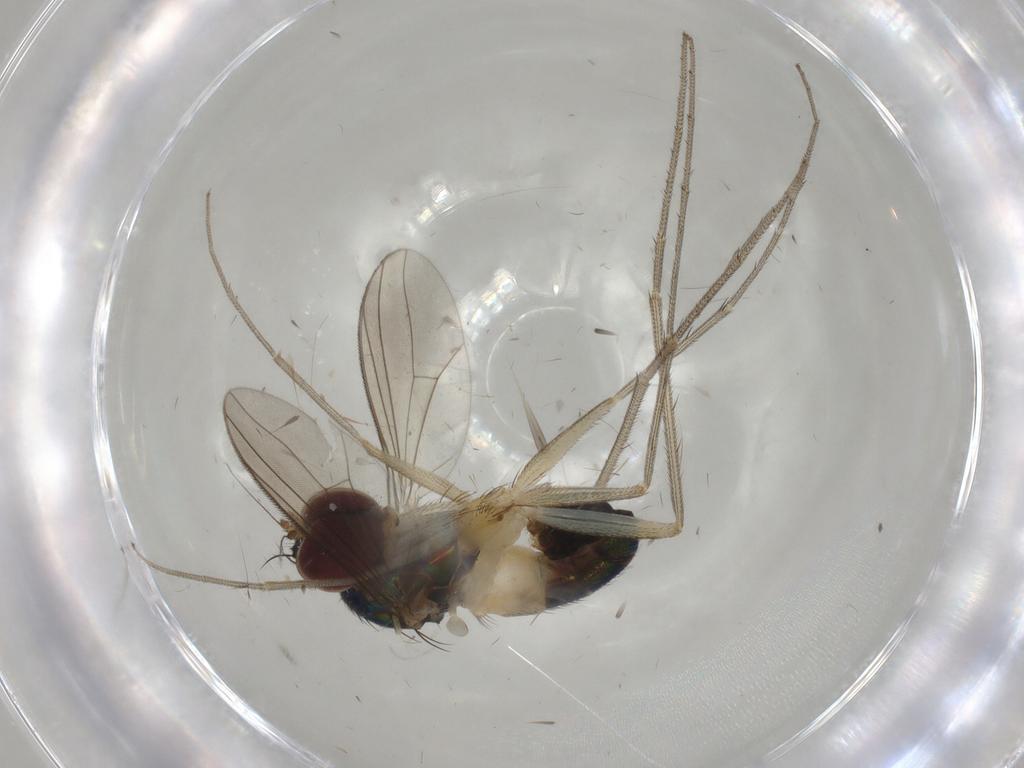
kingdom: Animalia
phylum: Arthropoda
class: Insecta
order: Diptera
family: Dolichopodidae
